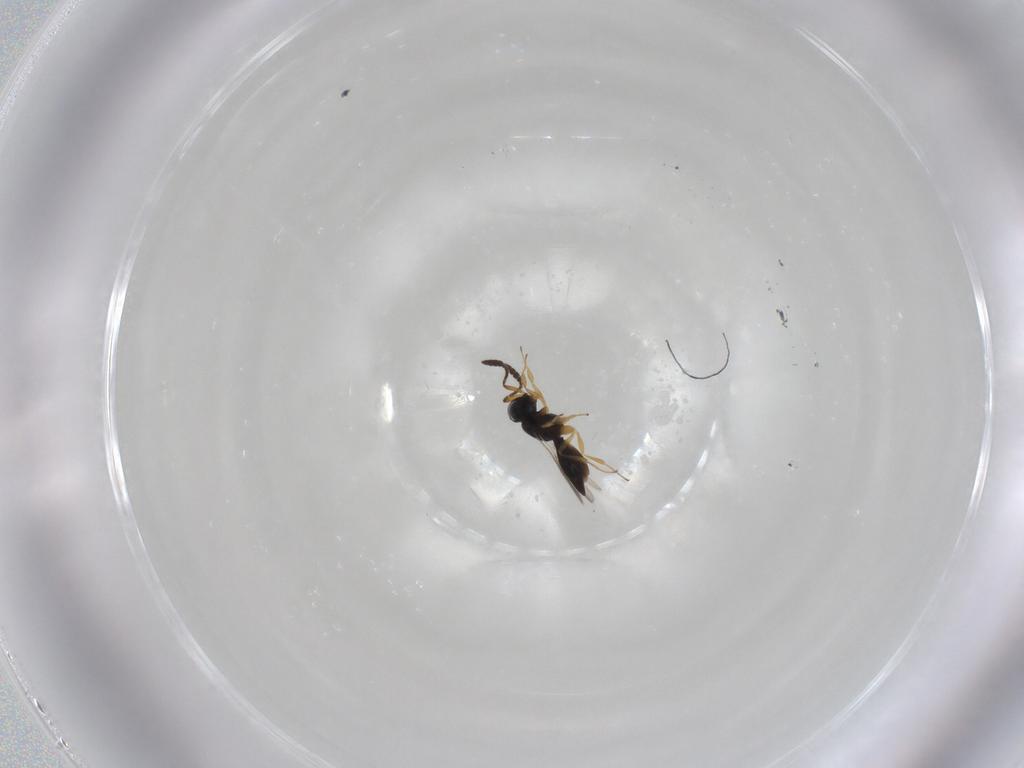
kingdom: Animalia
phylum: Arthropoda
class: Insecta
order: Hymenoptera
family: Scelionidae
